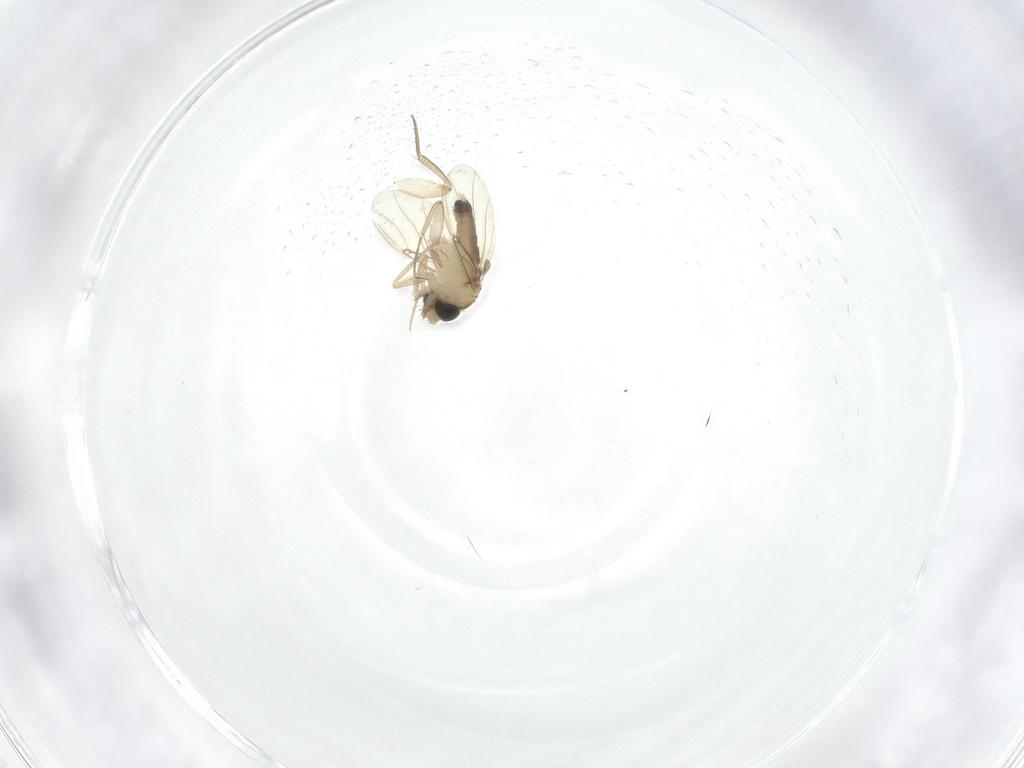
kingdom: Animalia
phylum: Arthropoda
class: Insecta
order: Diptera
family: Phoridae
